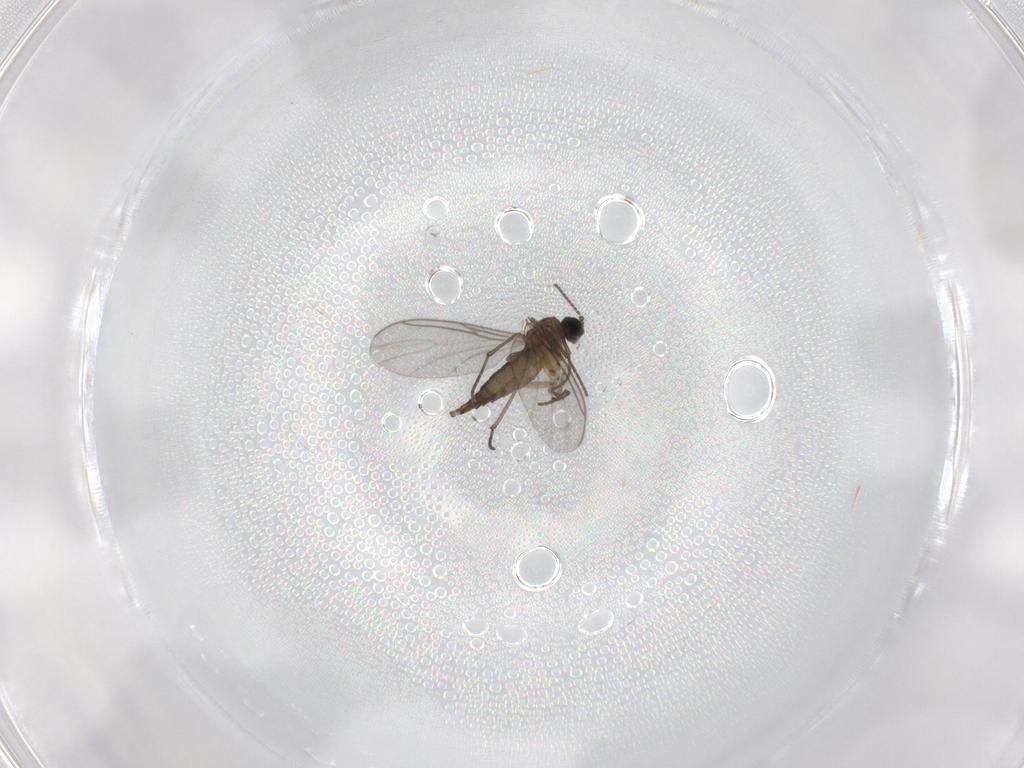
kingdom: Animalia
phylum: Arthropoda
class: Insecta
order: Diptera
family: Sciaridae
